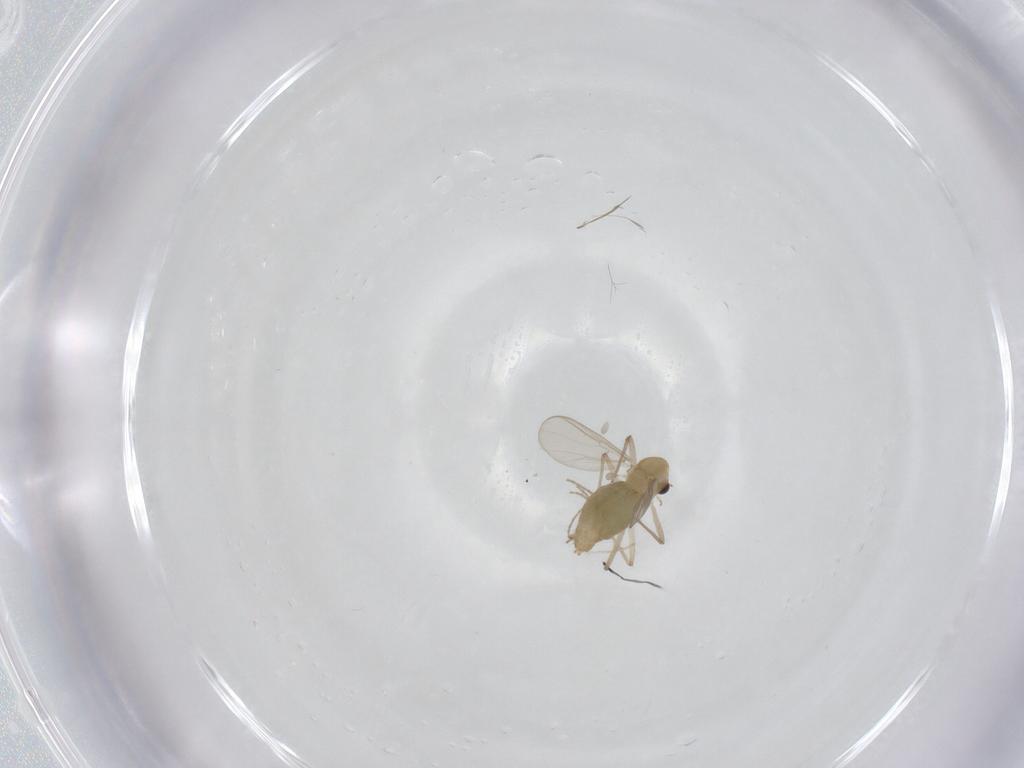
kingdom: Animalia
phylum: Arthropoda
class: Insecta
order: Diptera
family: Chironomidae
